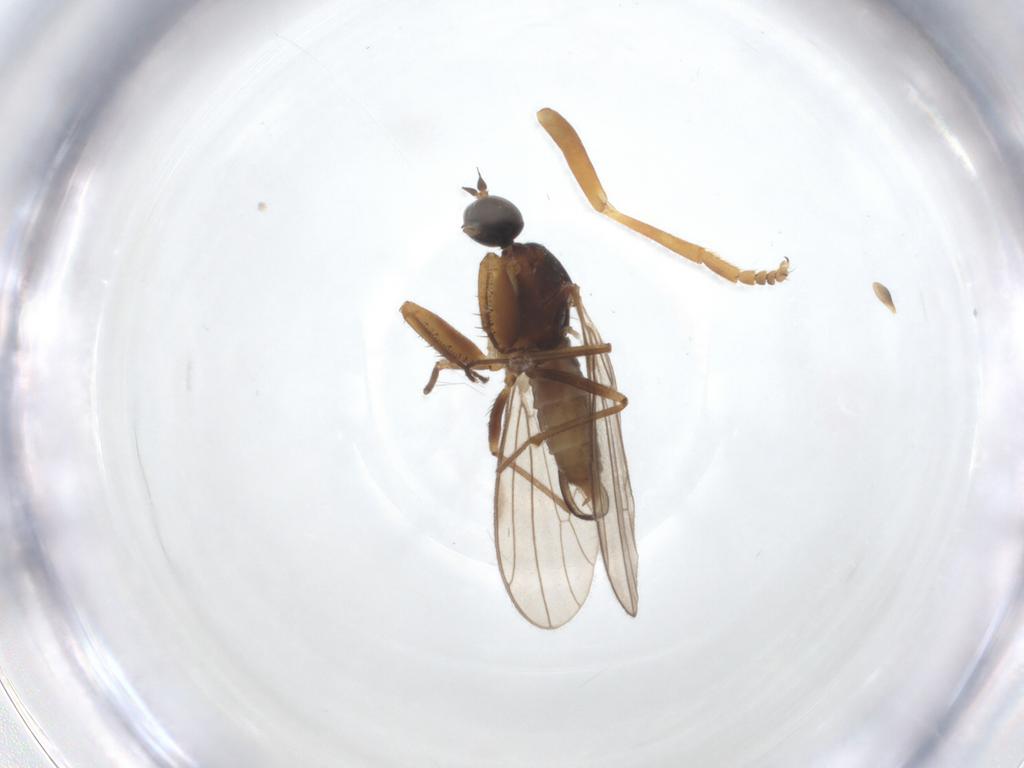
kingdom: Animalia
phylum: Arthropoda
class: Insecta
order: Diptera
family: Empididae
